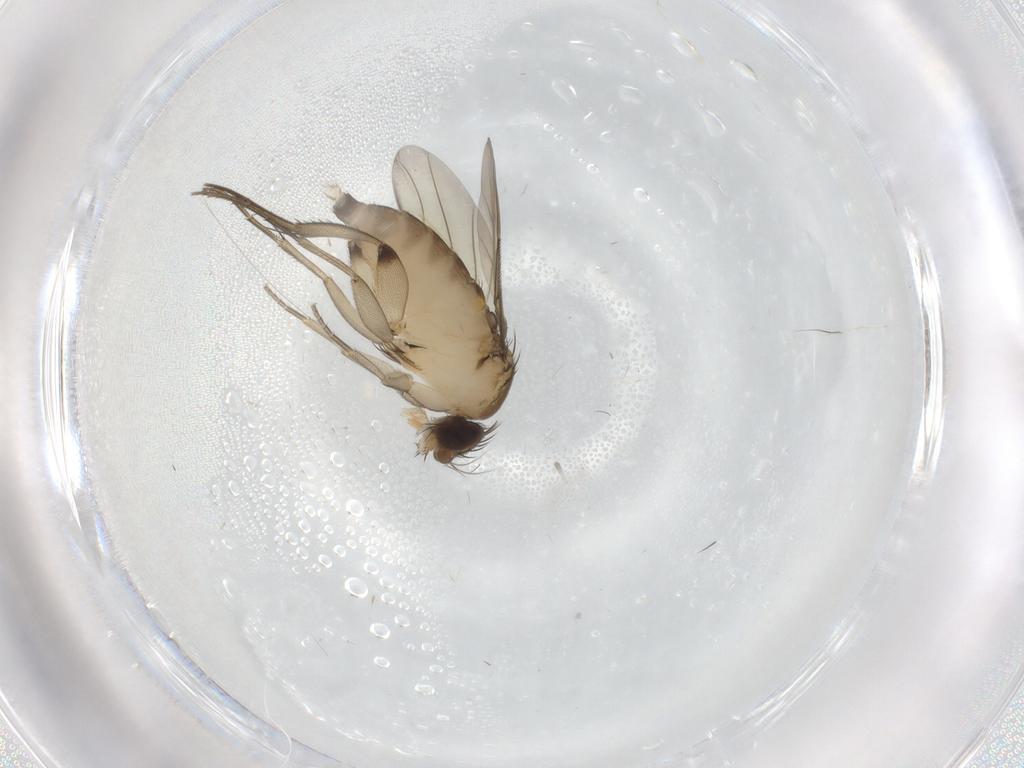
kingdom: Animalia
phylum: Arthropoda
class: Insecta
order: Diptera
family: Phoridae
